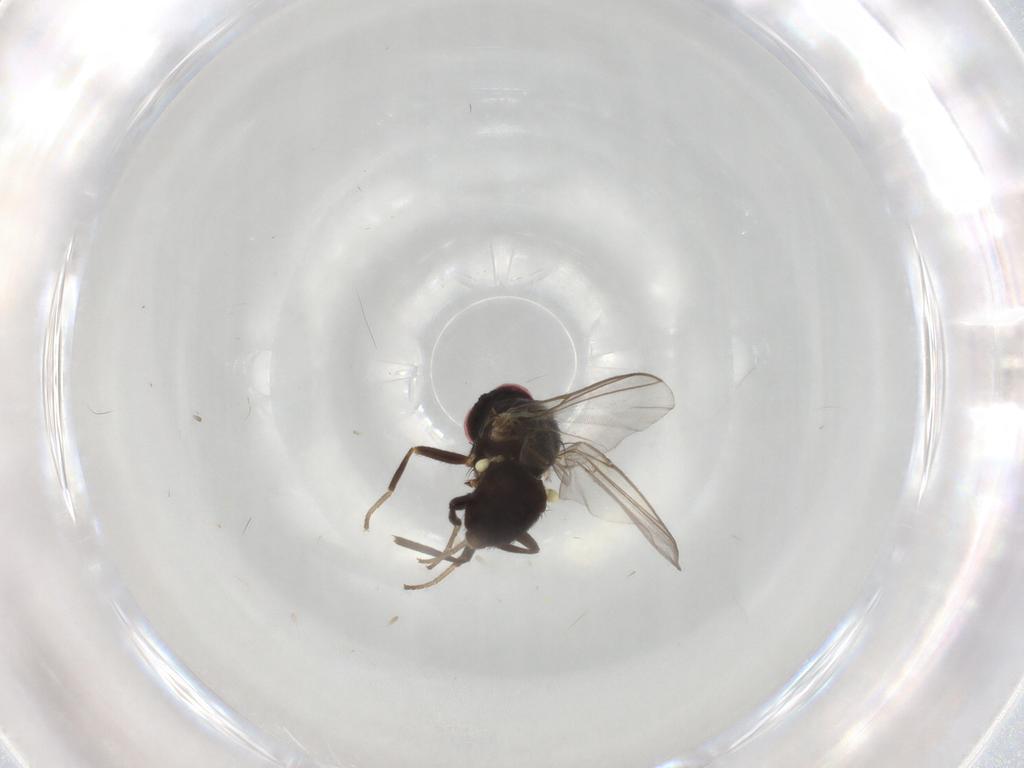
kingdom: Animalia
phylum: Arthropoda
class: Insecta
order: Diptera
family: Agromyzidae
